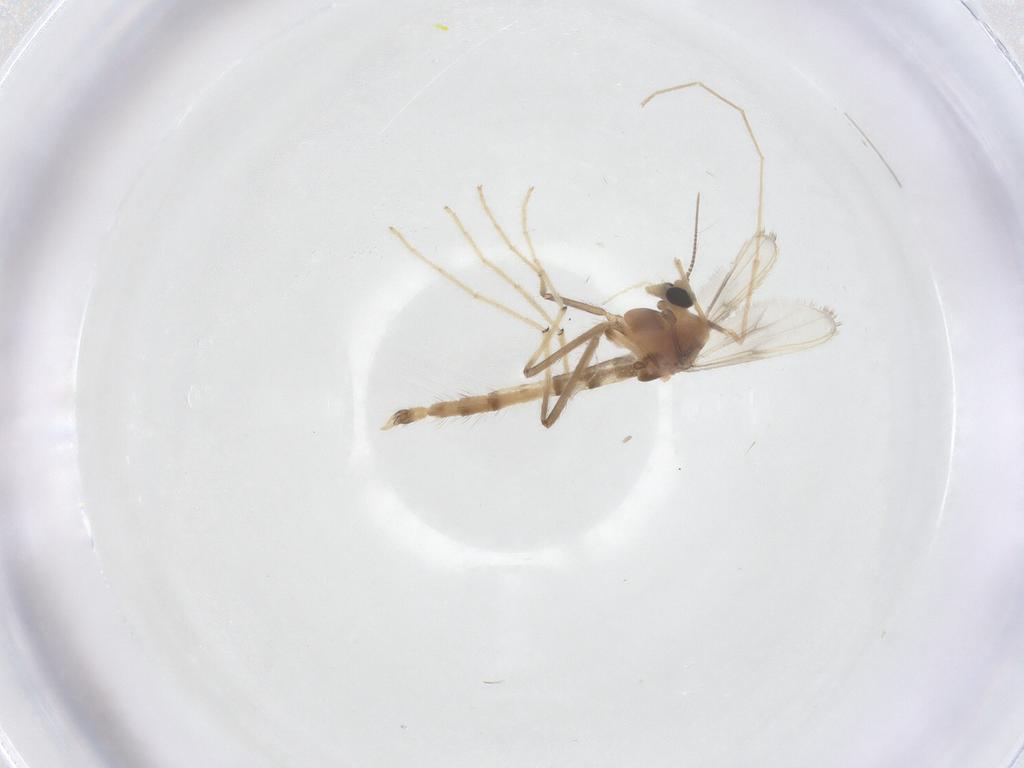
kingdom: Animalia
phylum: Arthropoda
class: Insecta
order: Diptera
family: Chironomidae
